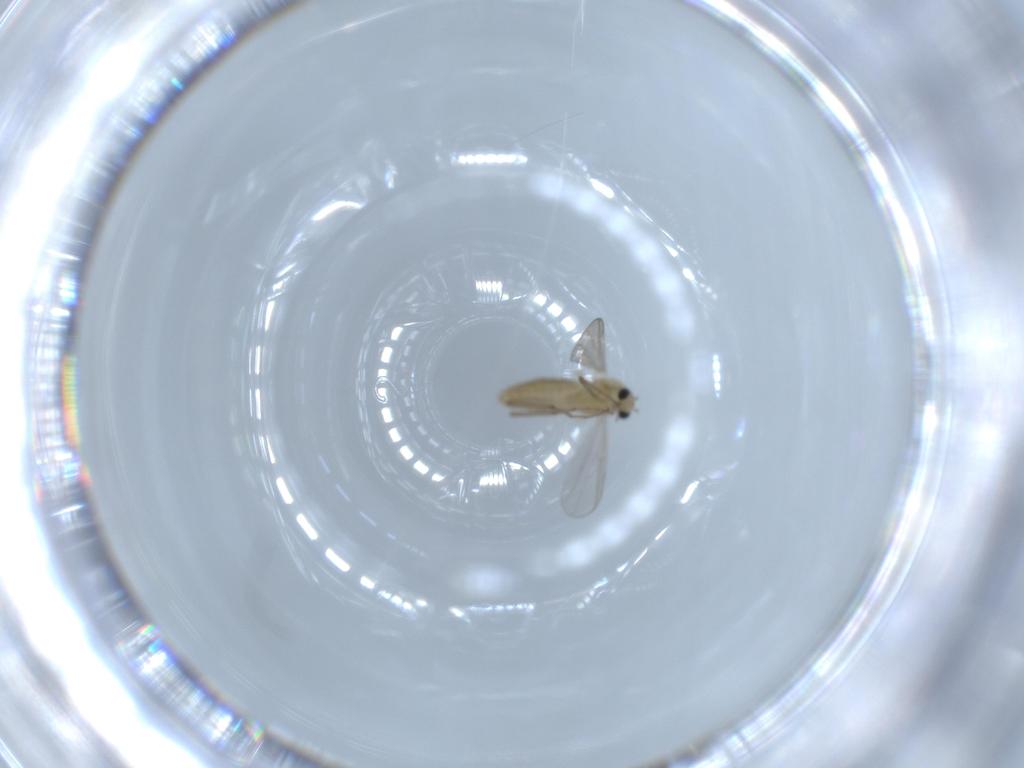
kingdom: Animalia
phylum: Arthropoda
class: Insecta
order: Diptera
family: Chironomidae
